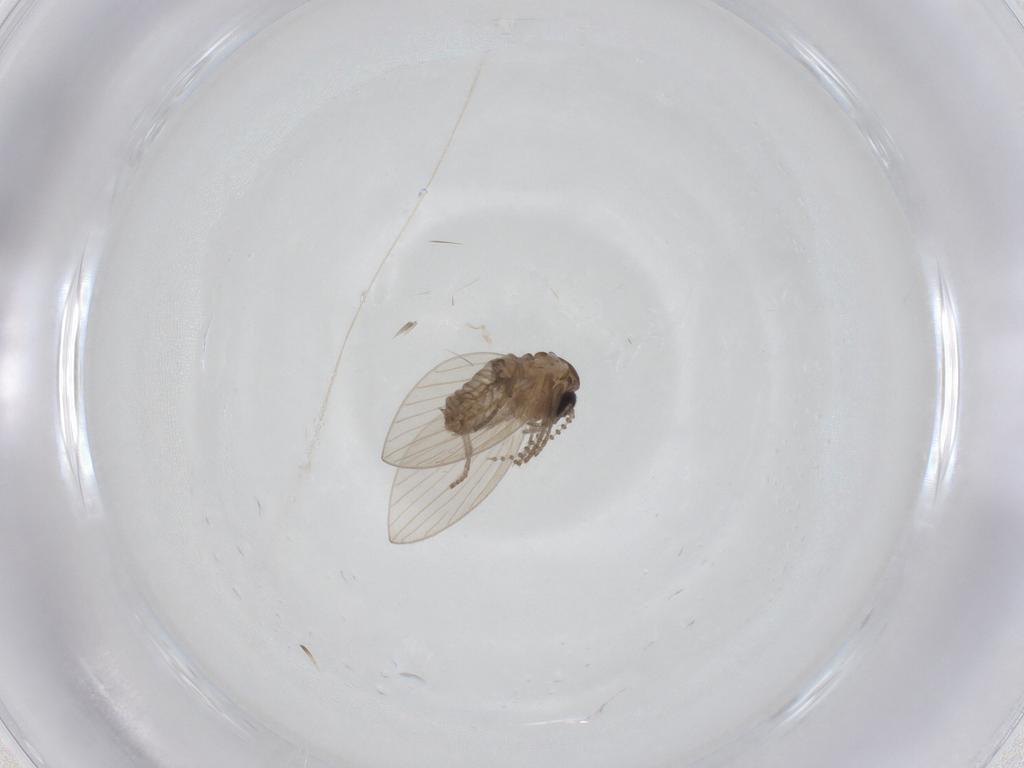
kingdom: Animalia
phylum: Arthropoda
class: Insecta
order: Diptera
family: Psychodidae
